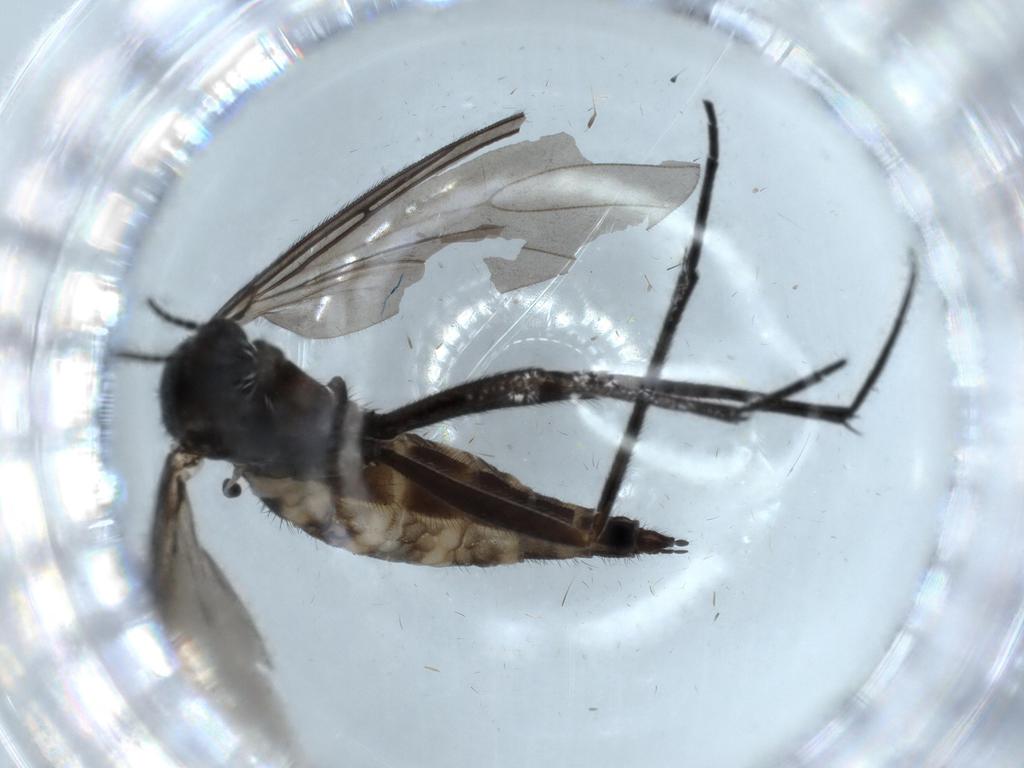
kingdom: Animalia
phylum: Arthropoda
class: Insecta
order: Diptera
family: Sciaridae
